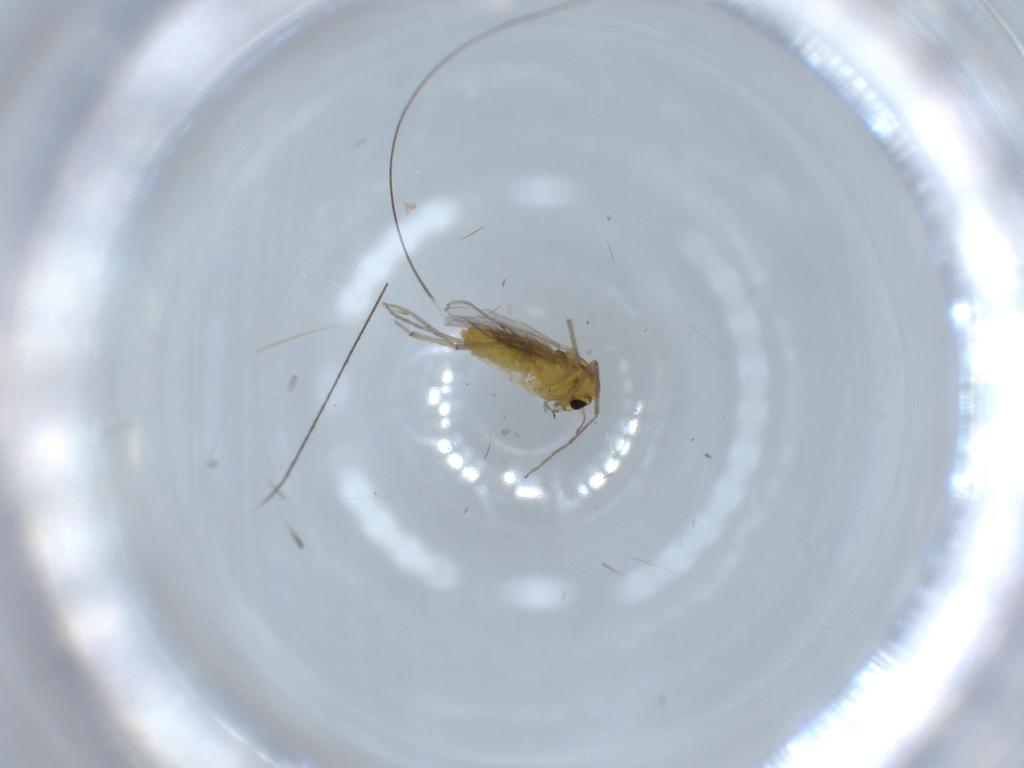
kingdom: Animalia
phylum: Arthropoda
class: Insecta
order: Diptera
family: Chironomidae
